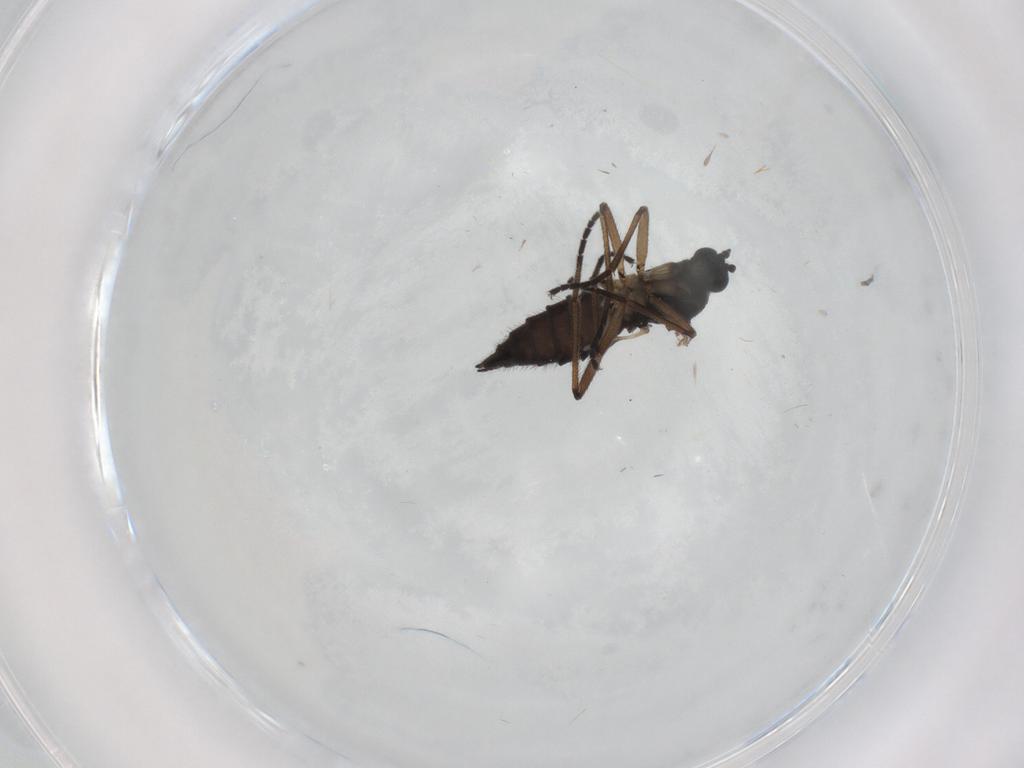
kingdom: Animalia
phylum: Arthropoda
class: Insecta
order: Diptera
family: Sciaridae
